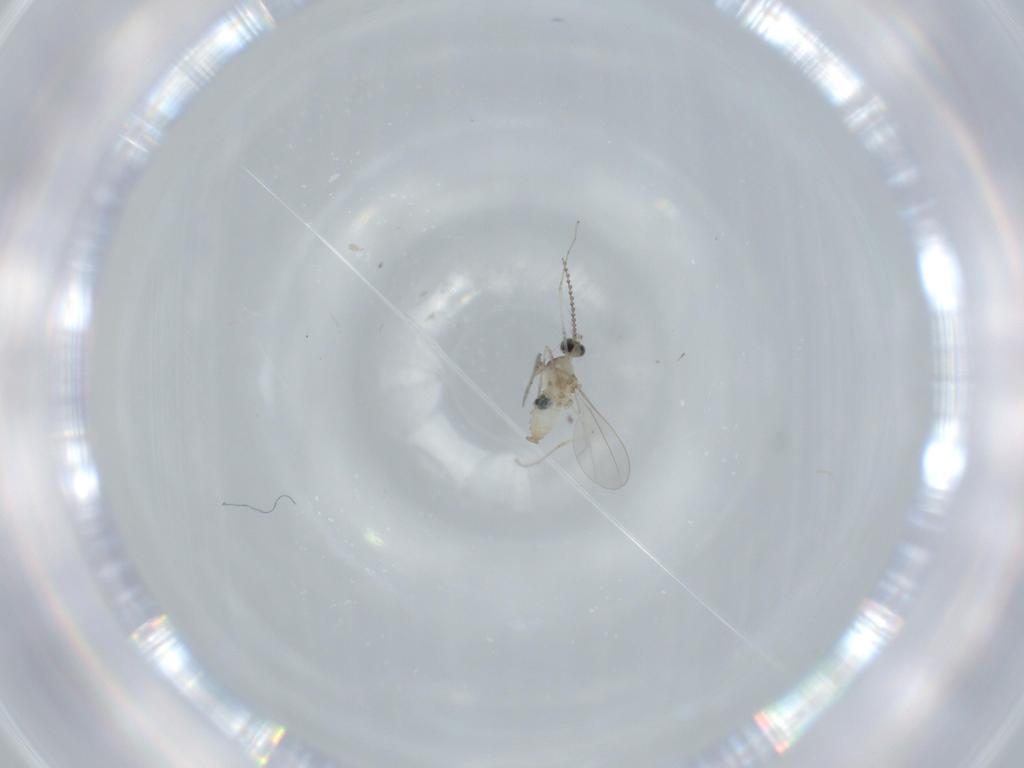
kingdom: Animalia
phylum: Arthropoda
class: Insecta
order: Diptera
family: Cecidomyiidae
